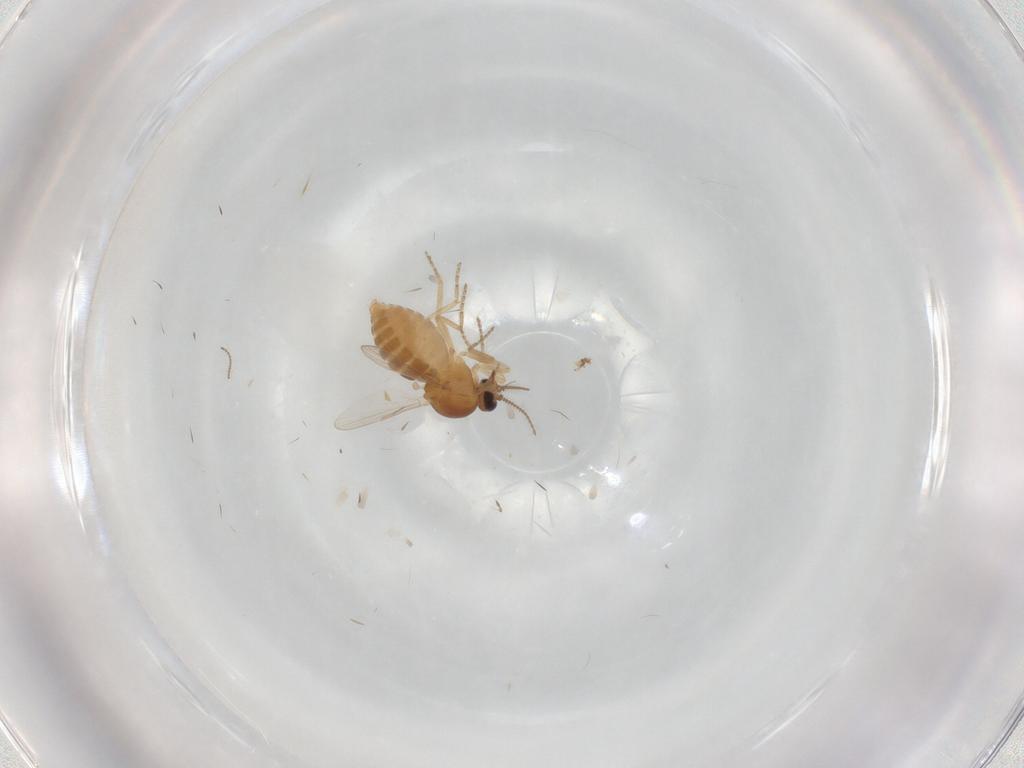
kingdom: Animalia
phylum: Arthropoda
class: Insecta
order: Diptera
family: Ceratopogonidae
